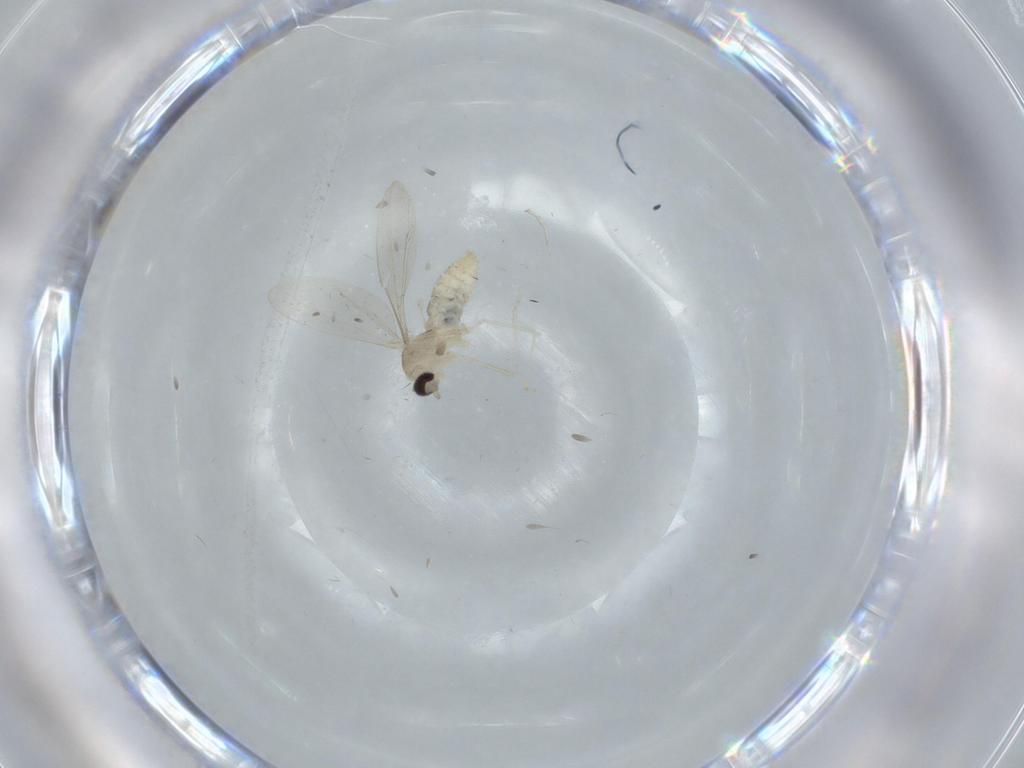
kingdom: Animalia
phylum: Arthropoda
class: Insecta
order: Diptera
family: Cecidomyiidae
